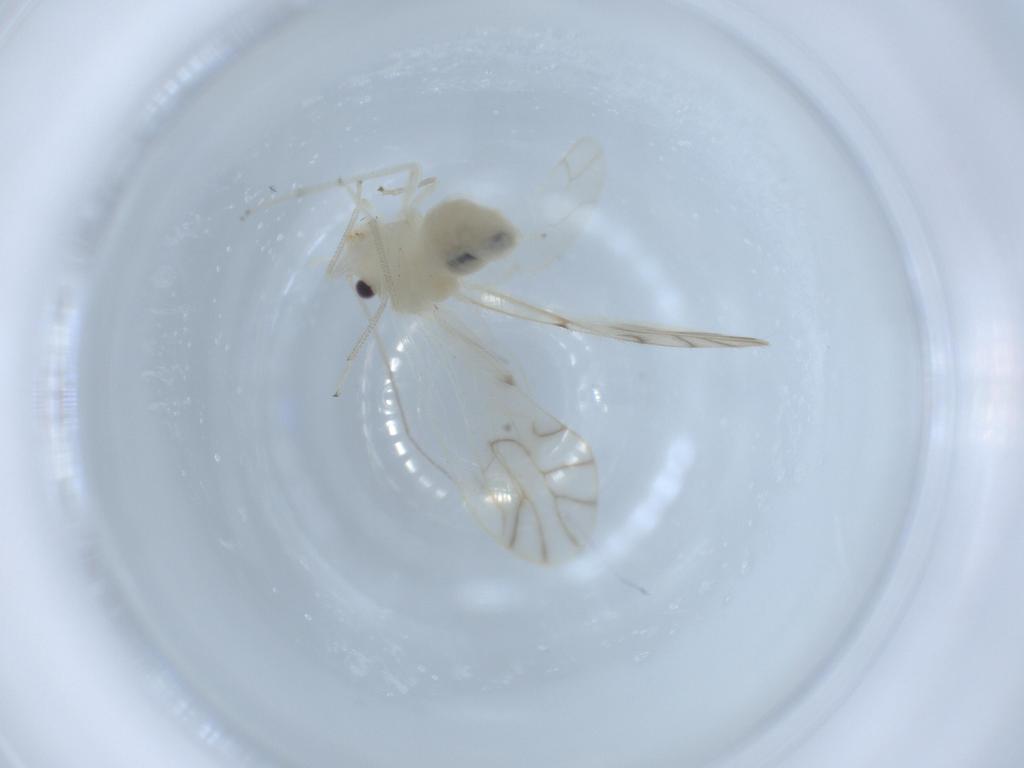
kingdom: Animalia
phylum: Arthropoda
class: Insecta
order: Psocodea
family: Caeciliusidae
